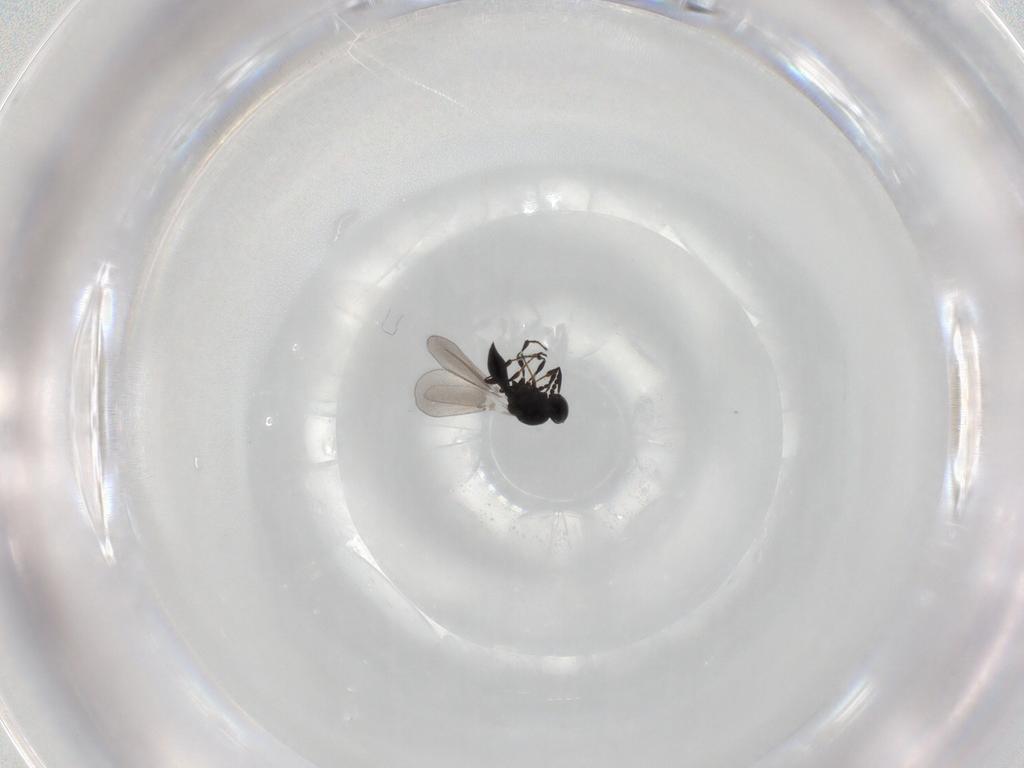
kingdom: Animalia
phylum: Arthropoda
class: Insecta
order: Hymenoptera
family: Platygastridae
